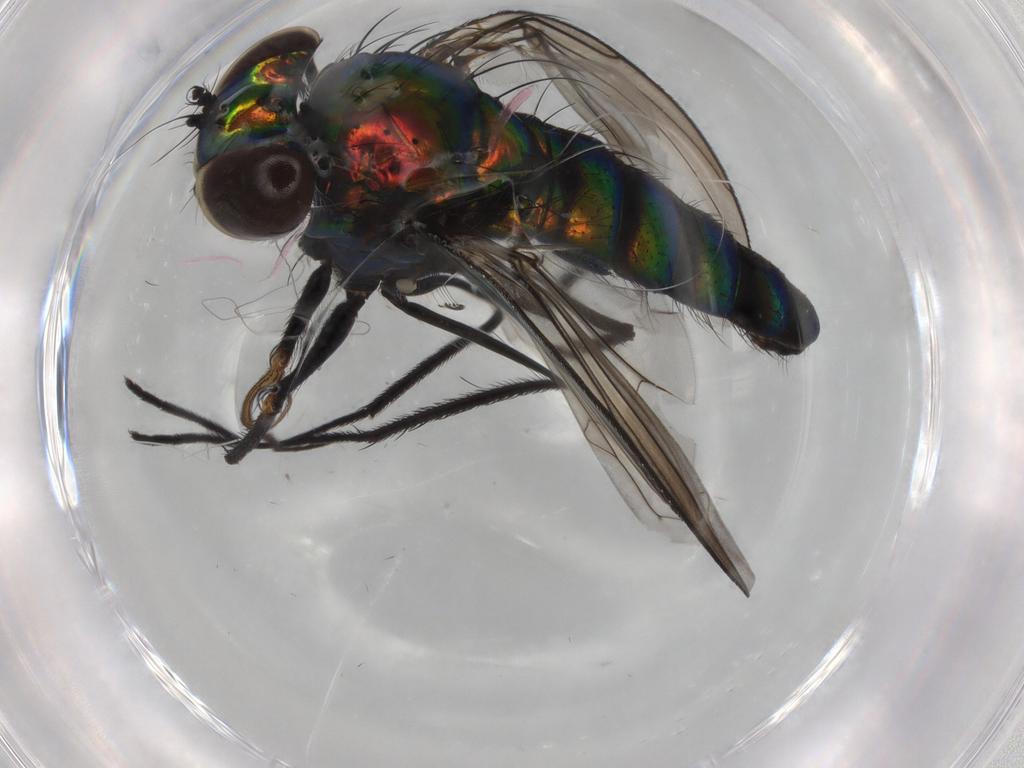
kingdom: Animalia
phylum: Arthropoda
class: Insecta
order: Diptera
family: Dolichopodidae
